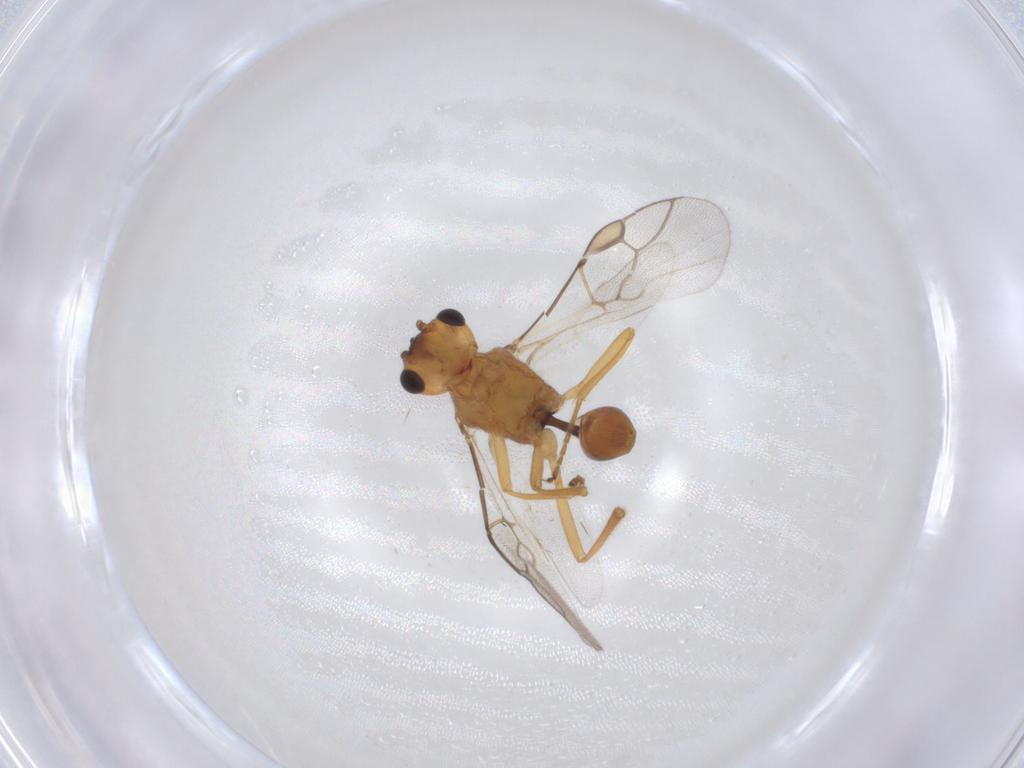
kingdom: Animalia
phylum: Arthropoda
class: Insecta
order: Hymenoptera
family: Braconidae
